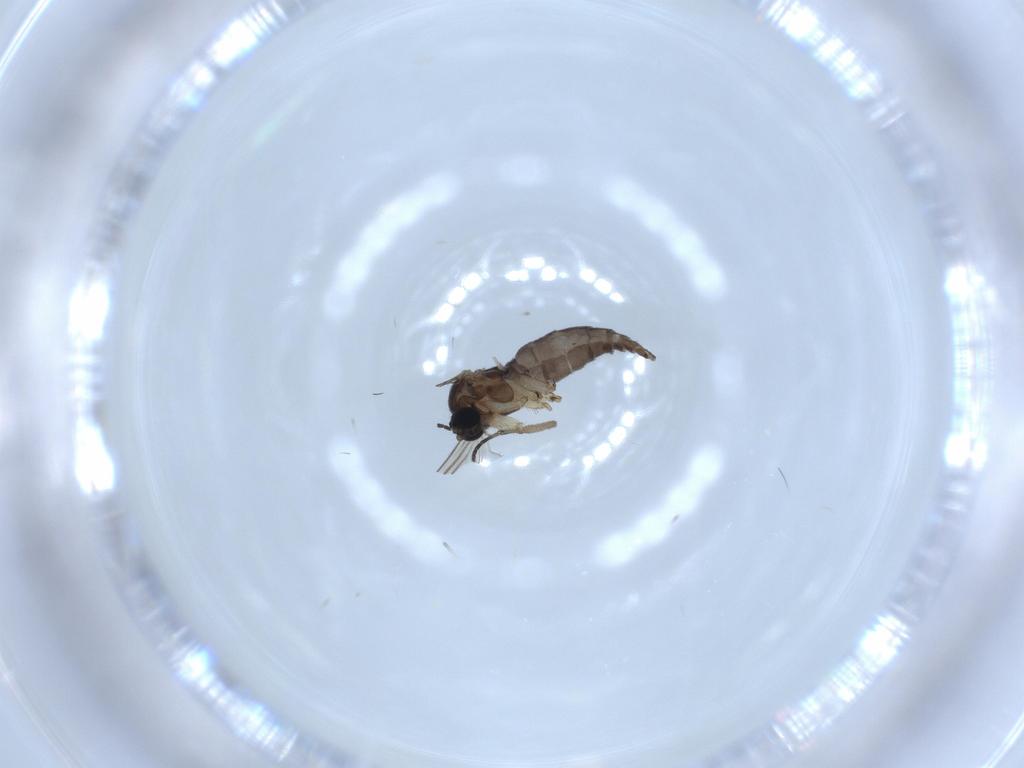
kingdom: Animalia
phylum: Arthropoda
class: Insecta
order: Diptera
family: Sciaridae
